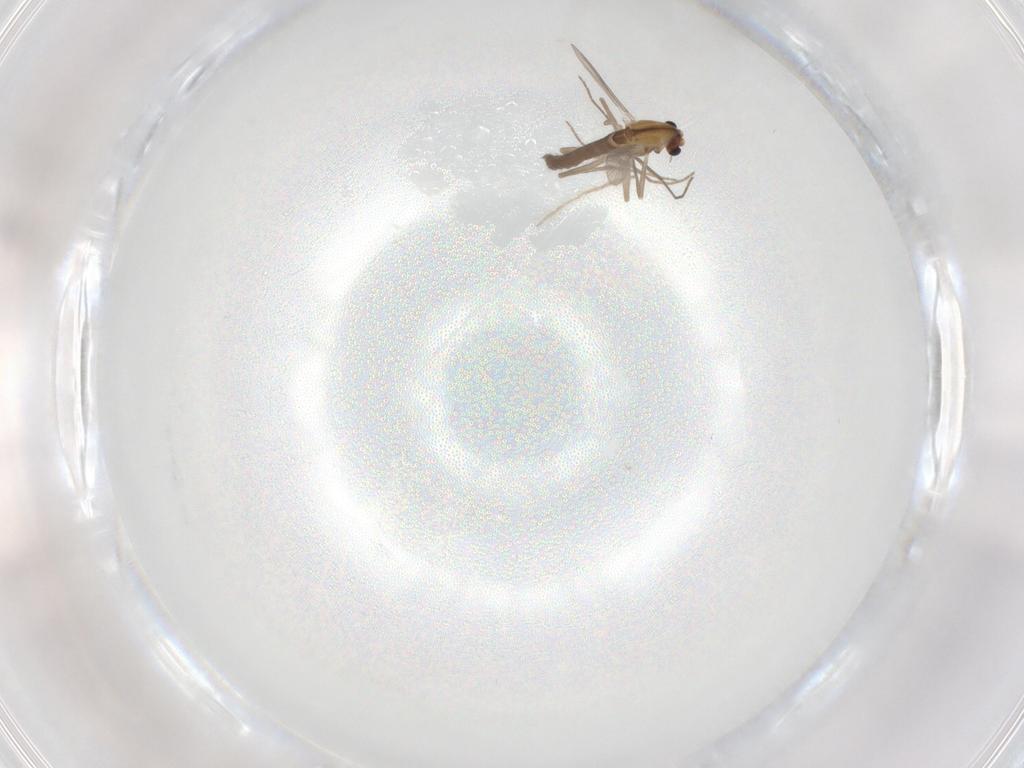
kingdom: Animalia
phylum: Arthropoda
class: Insecta
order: Diptera
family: Chironomidae
